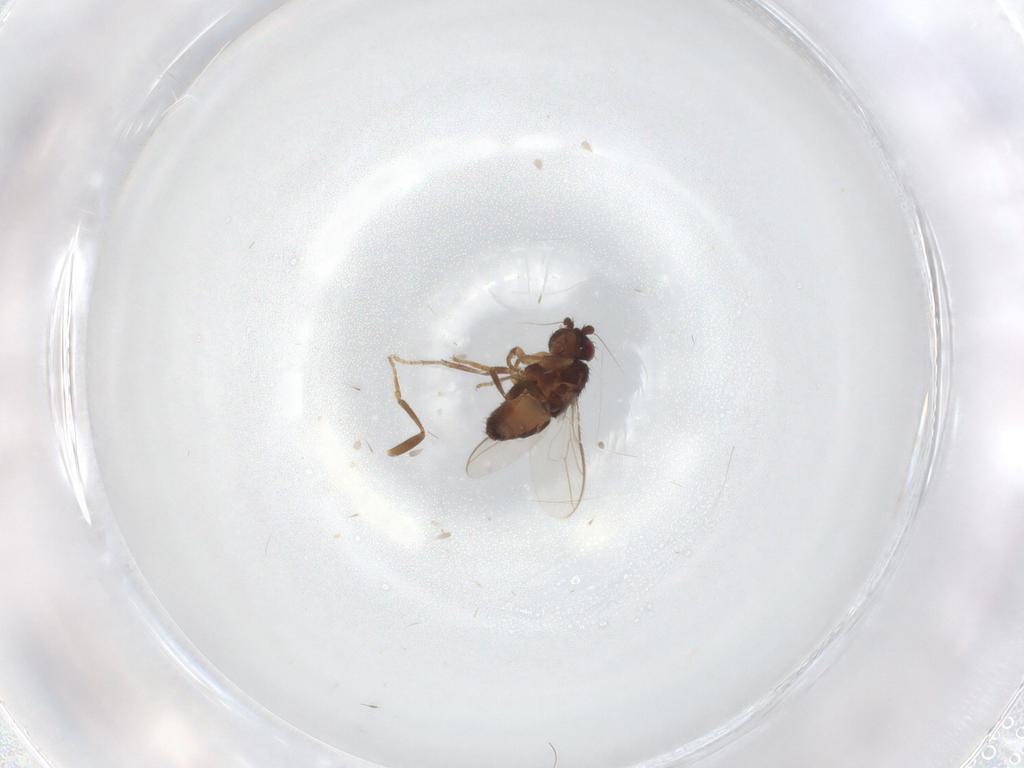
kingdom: Animalia
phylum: Arthropoda
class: Insecta
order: Diptera
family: Sphaeroceridae
